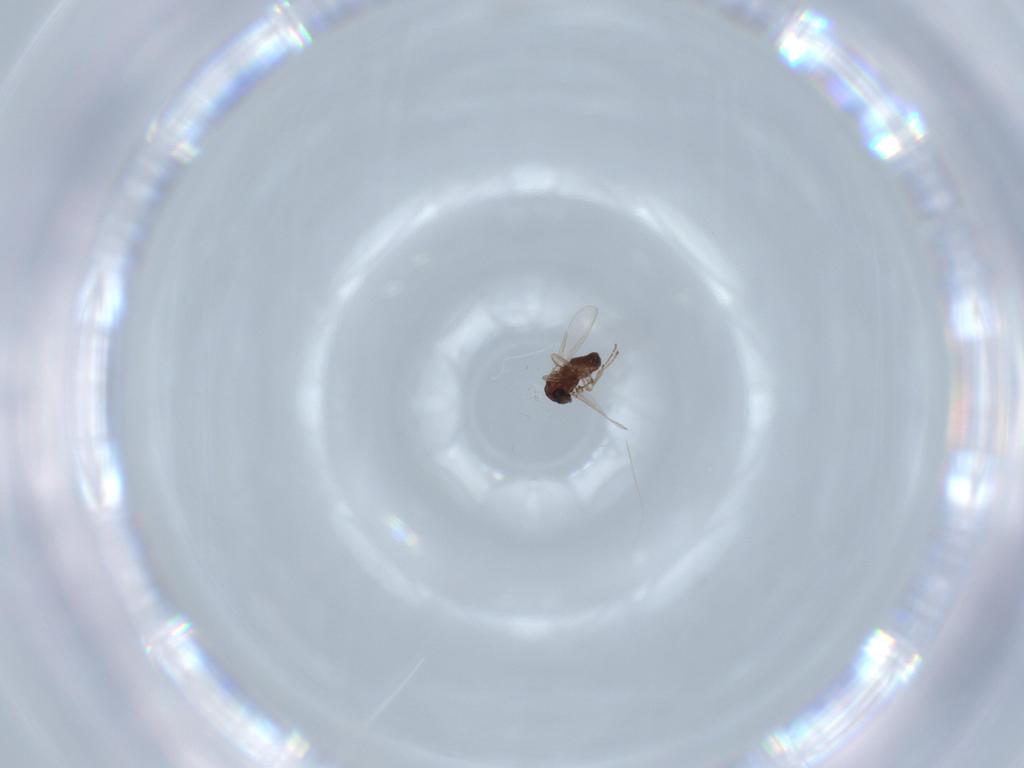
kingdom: Animalia
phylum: Arthropoda
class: Insecta
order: Diptera
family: Ceratopogonidae
